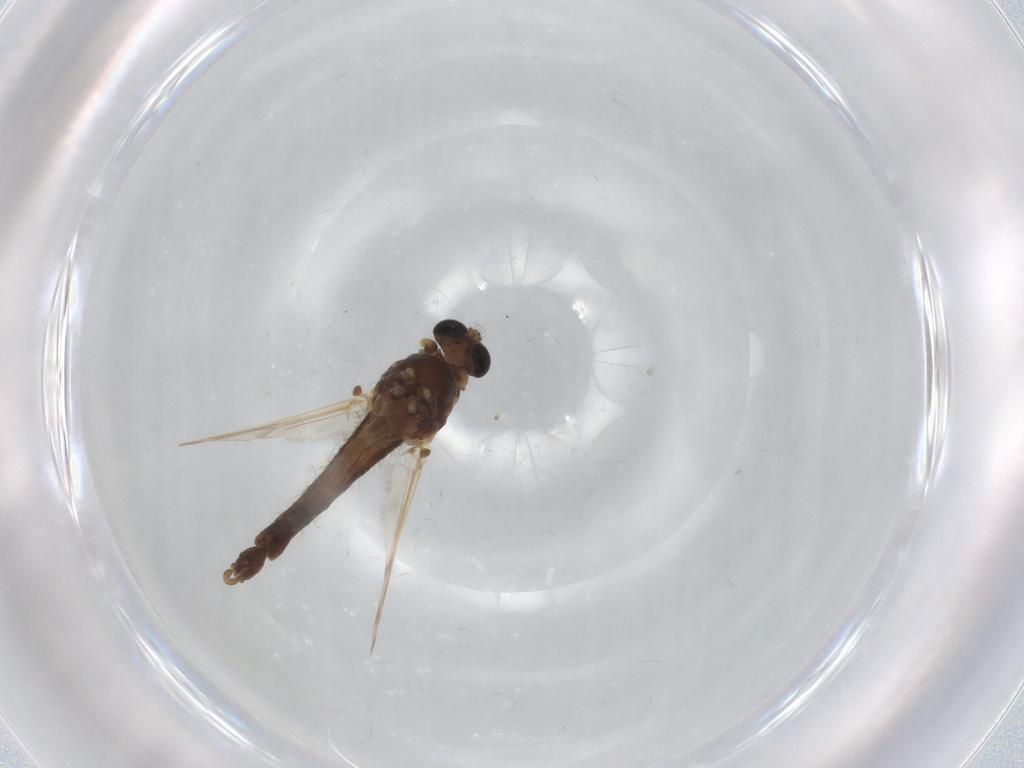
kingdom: Animalia
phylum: Arthropoda
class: Insecta
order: Diptera
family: Chironomidae
